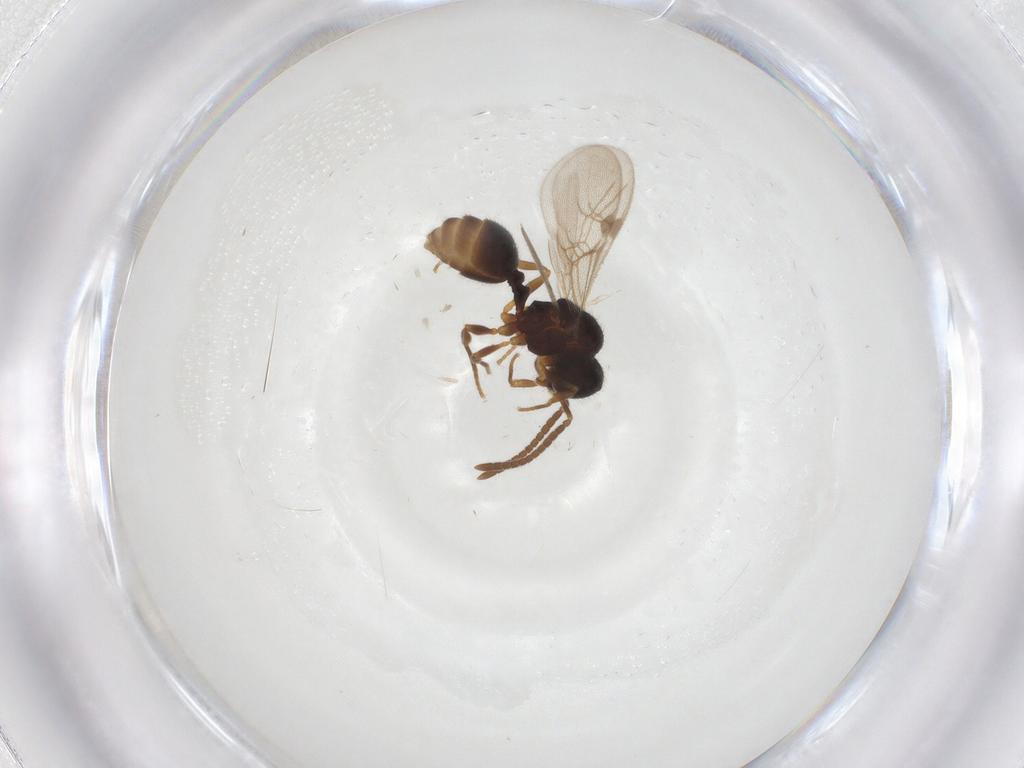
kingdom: Animalia
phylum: Arthropoda
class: Insecta
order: Hymenoptera
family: Formicidae
